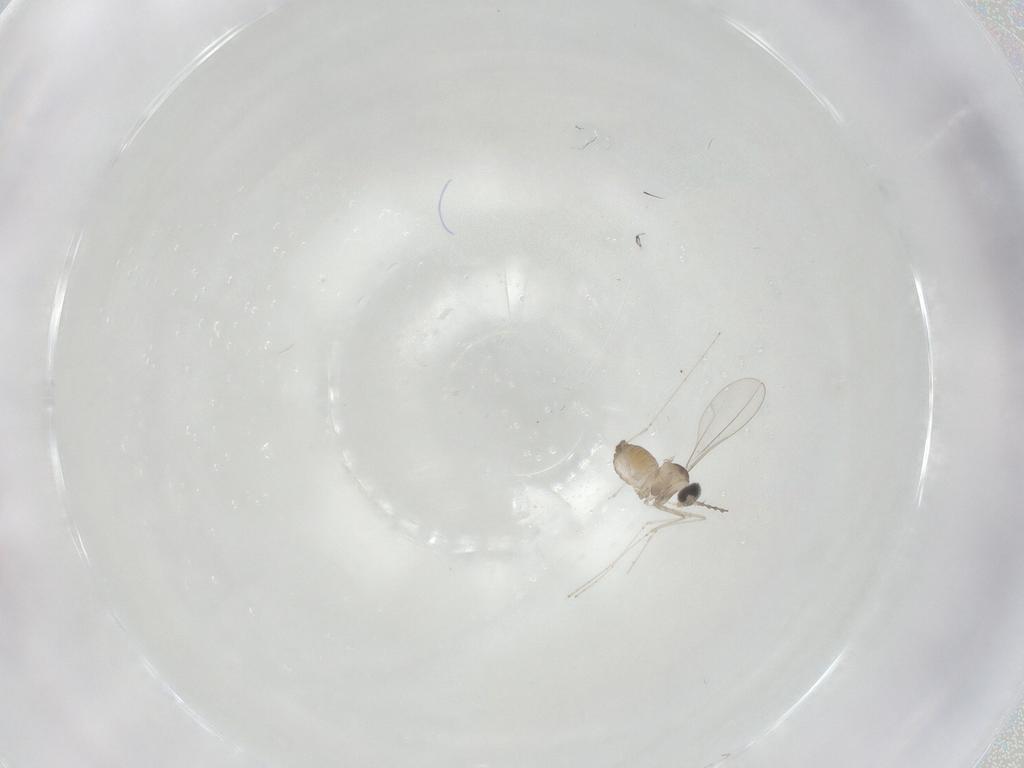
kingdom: Animalia
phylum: Arthropoda
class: Insecta
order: Diptera
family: Cecidomyiidae
